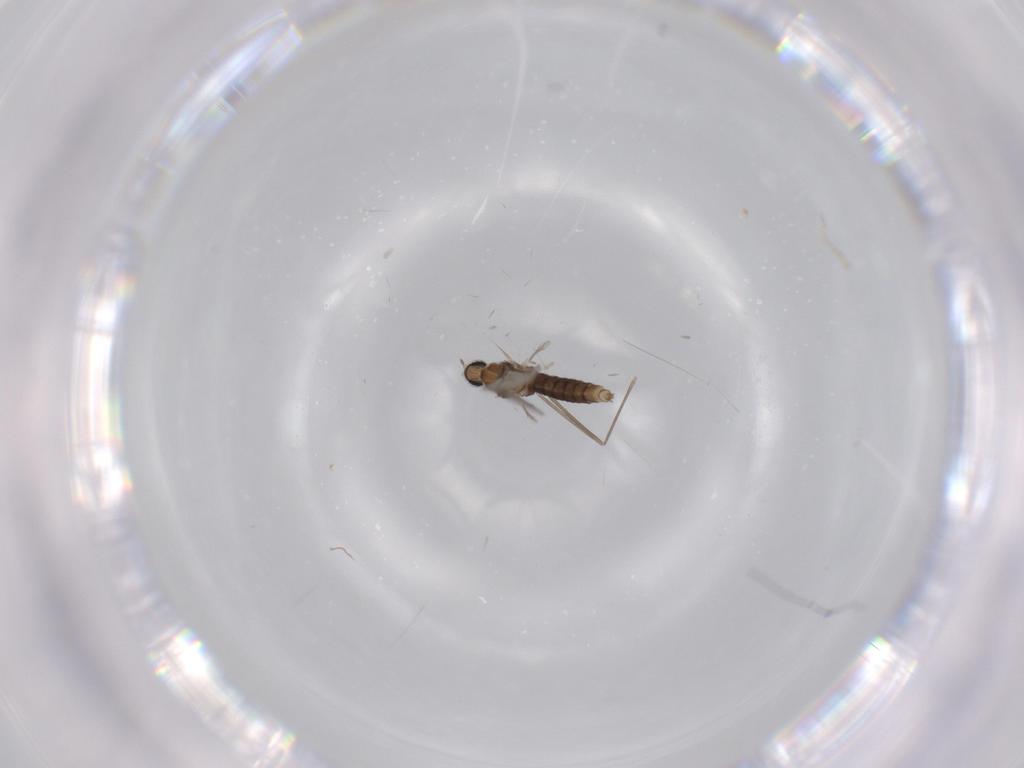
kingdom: Animalia
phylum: Arthropoda
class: Insecta
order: Diptera
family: Cecidomyiidae
